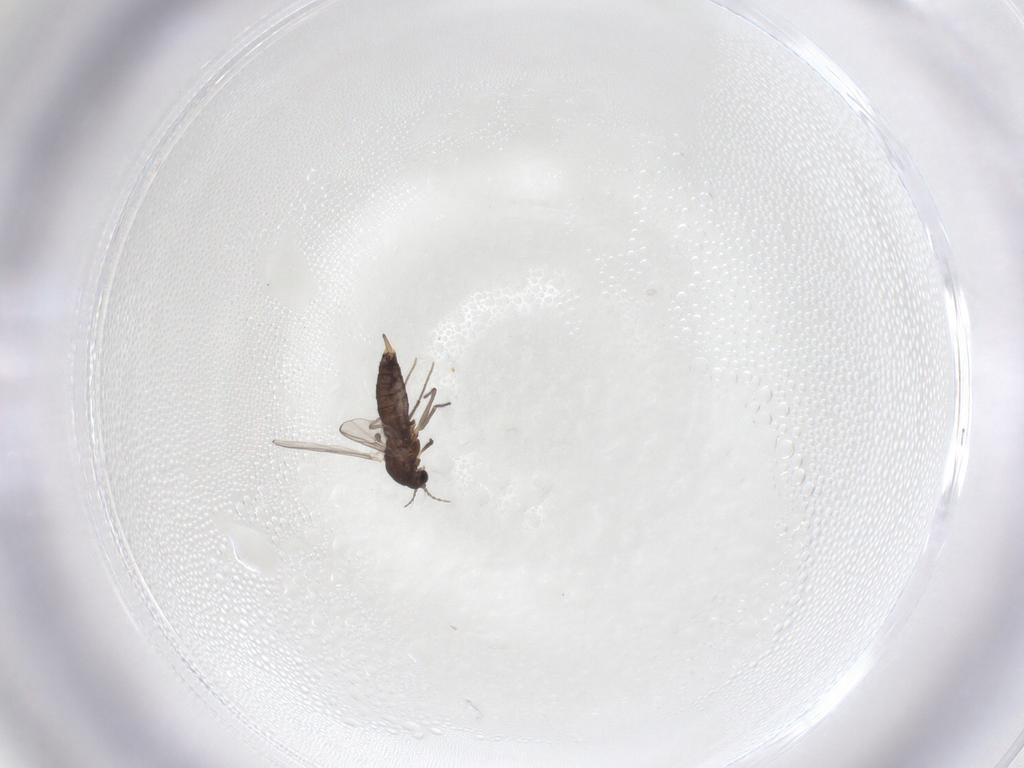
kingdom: Animalia
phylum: Arthropoda
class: Insecta
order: Diptera
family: Chironomidae
